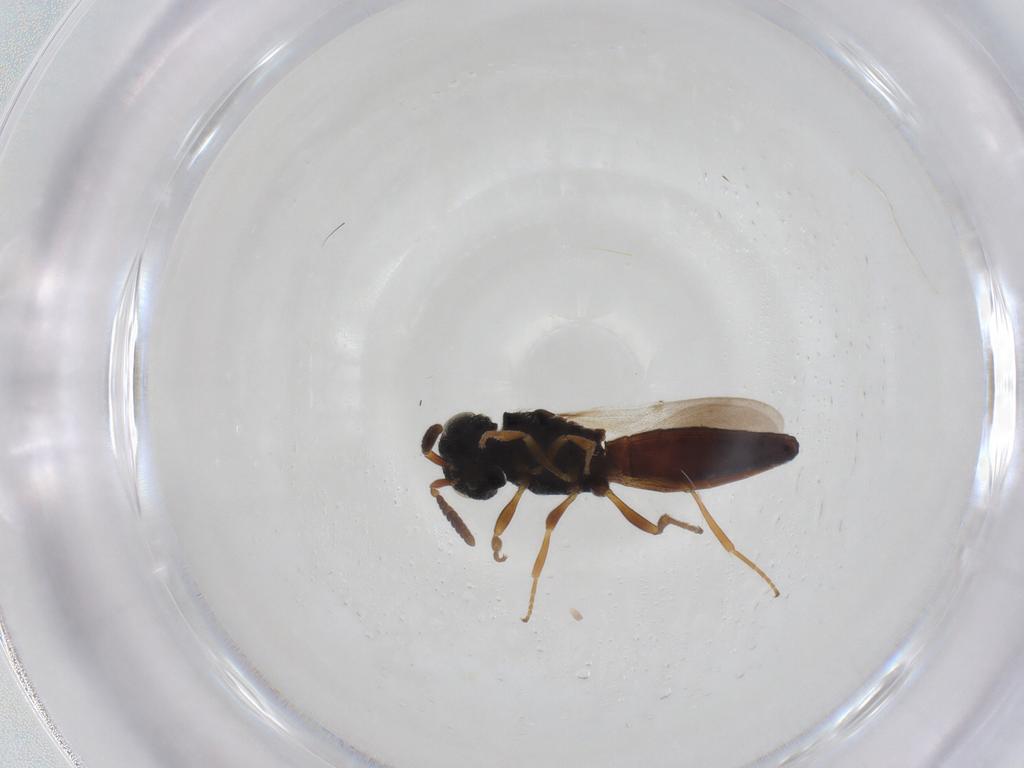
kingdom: Animalia
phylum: Arthropoda
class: Insecta
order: Hymenoptera
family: Scelionidae
